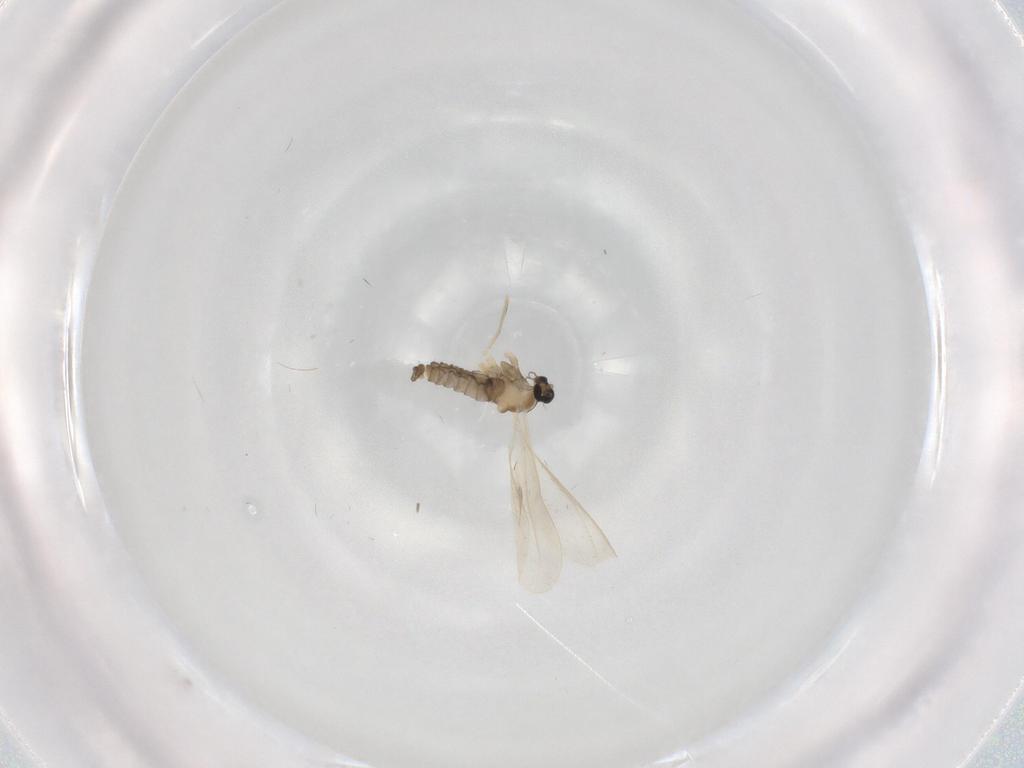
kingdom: Animalia
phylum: Arthropoda
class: Insecta
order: Diptera
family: Cecidomyiidae
